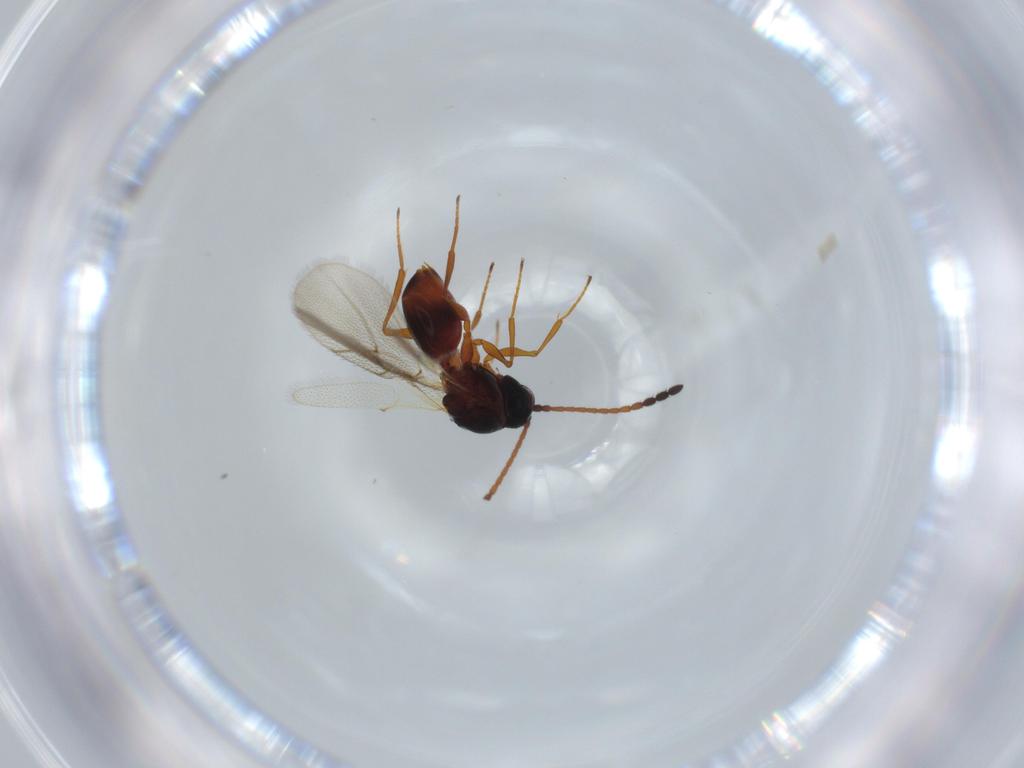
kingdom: Animalia
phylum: Arthropoda
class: Insecta
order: Hymenoptera
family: Figitidae
